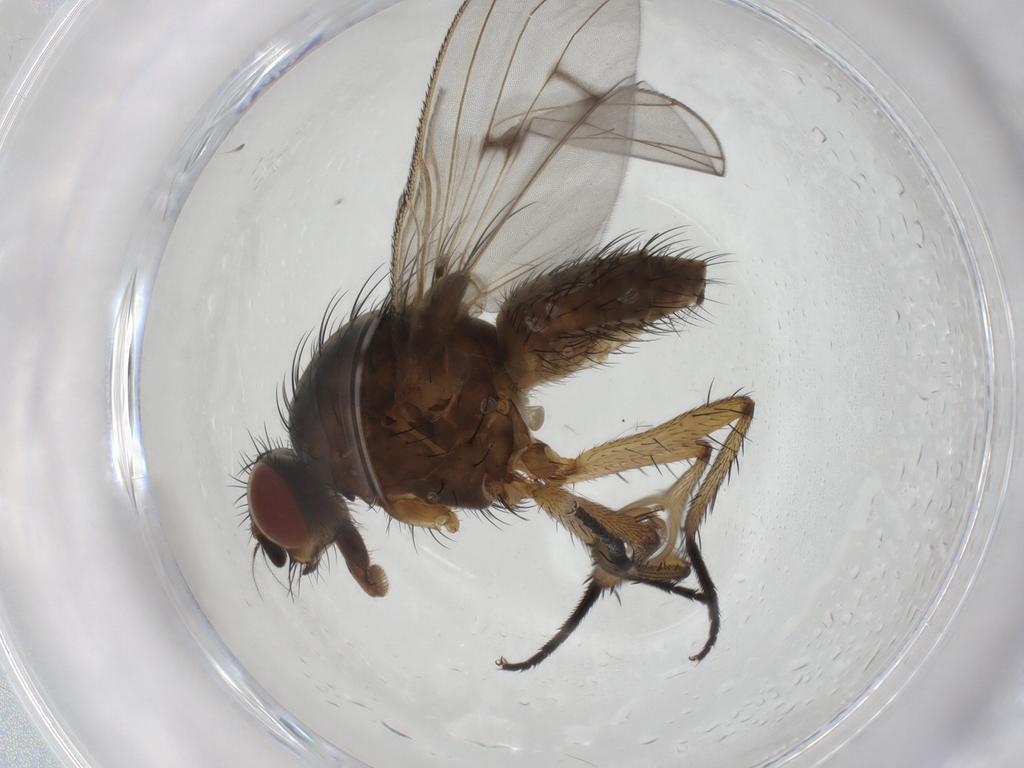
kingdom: Animalia
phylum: Arthropoda
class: Insecta
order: Diptera
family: Anthomyiidae
